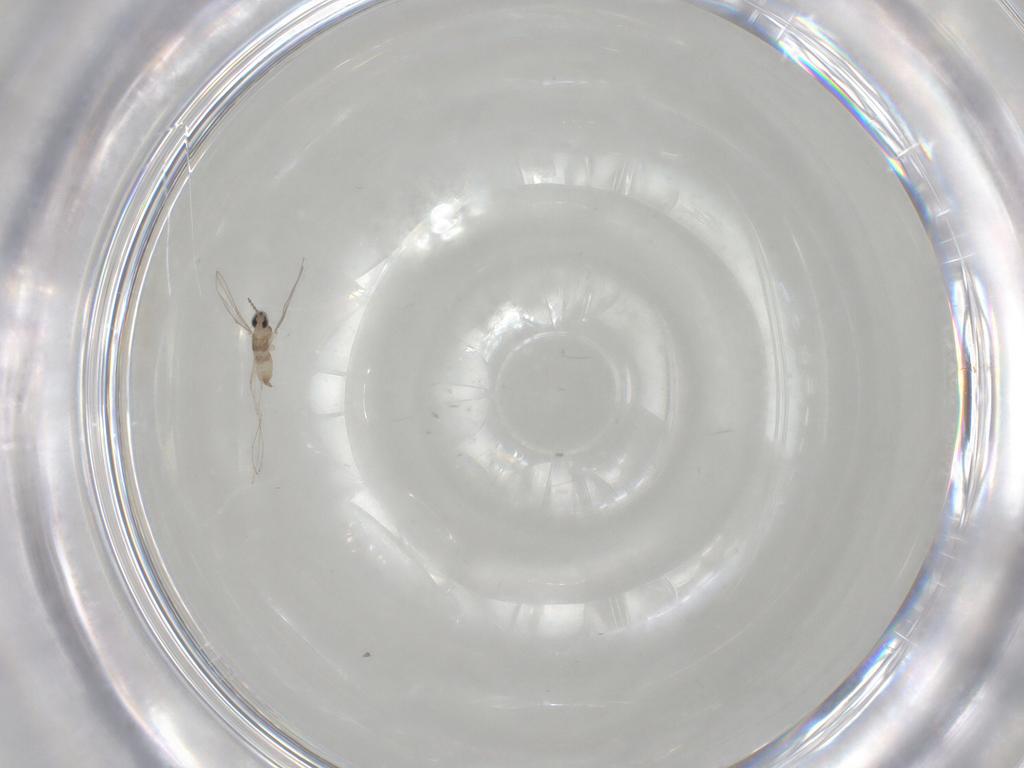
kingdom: Animalia
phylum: Arthropoda
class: Insecta
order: Diptera
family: Cecidomyiidae
